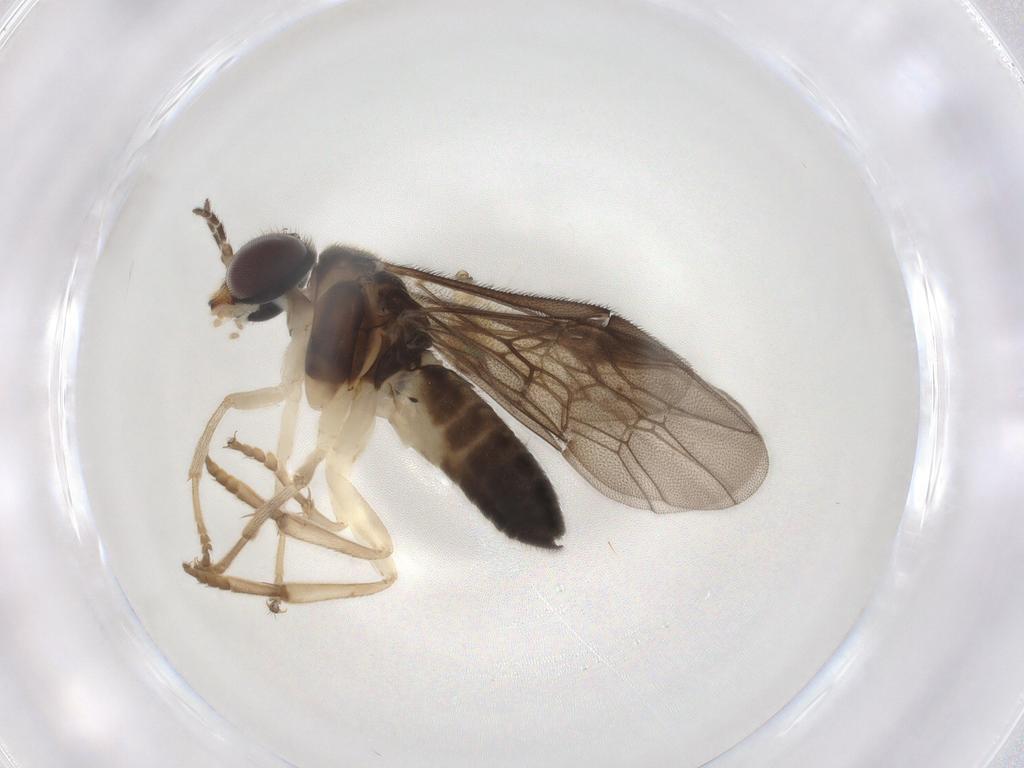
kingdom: Animalia
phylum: Arthropoda
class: Insecta
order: Hymenoptera
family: Pergidae
